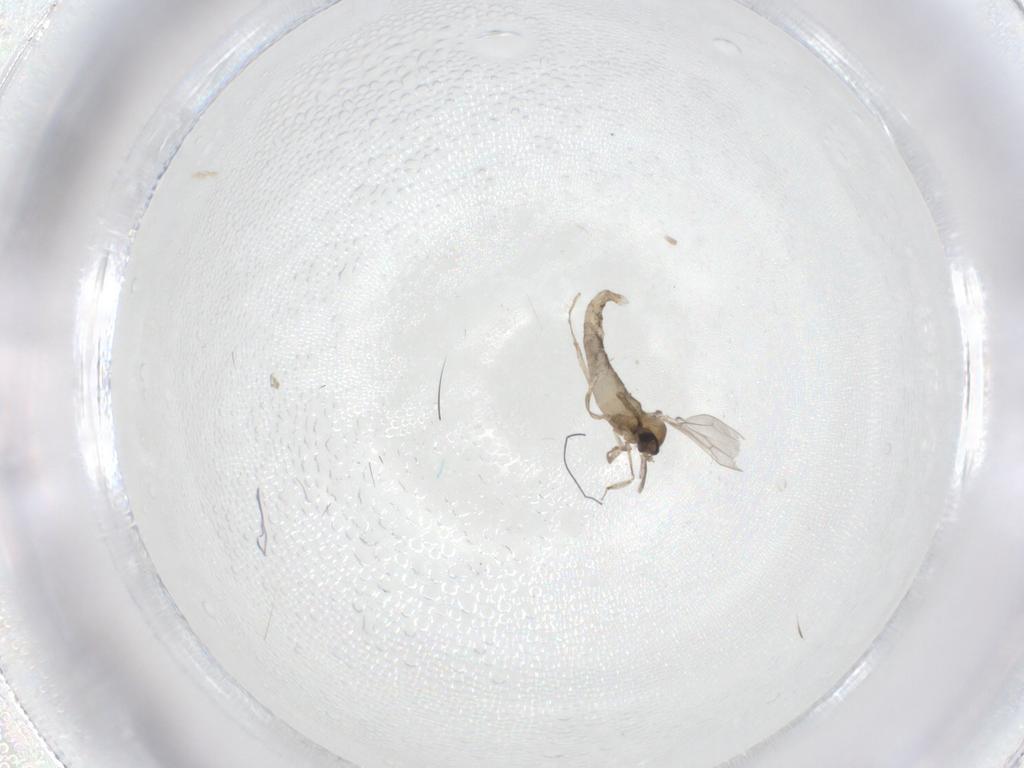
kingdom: Animalia
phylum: Arthropoda
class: Insecta
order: Diptera
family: Cecidomyiidae
